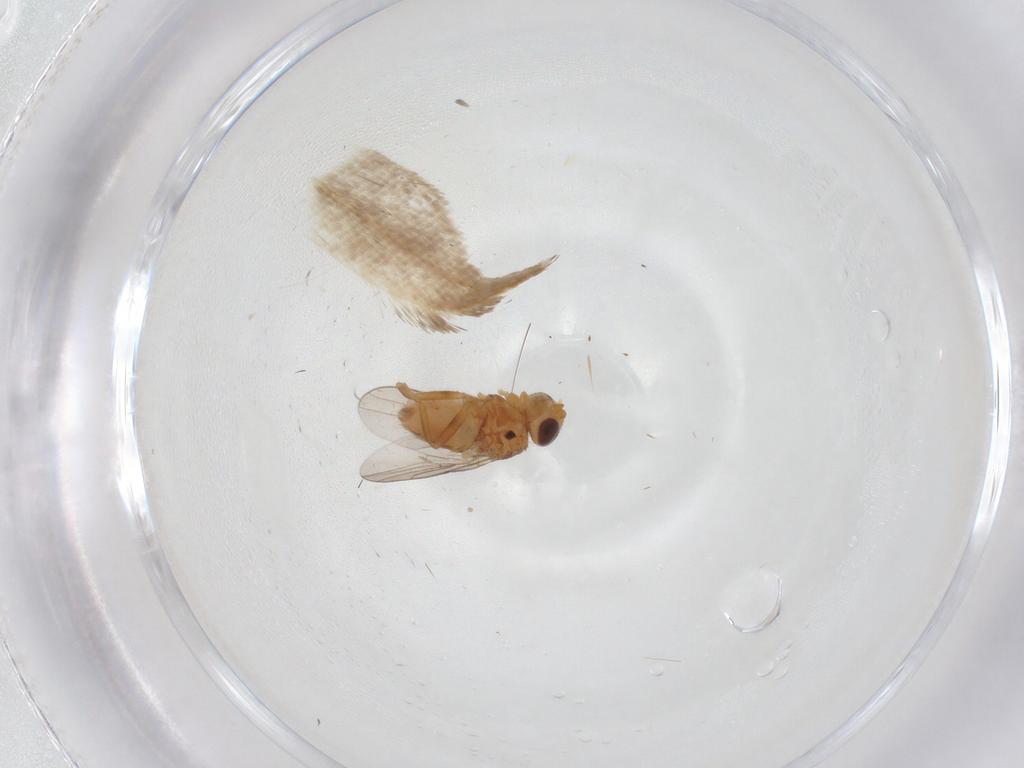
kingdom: Animalia
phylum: Arthropoda
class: Insecta
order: Diptera
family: Chloropidae
